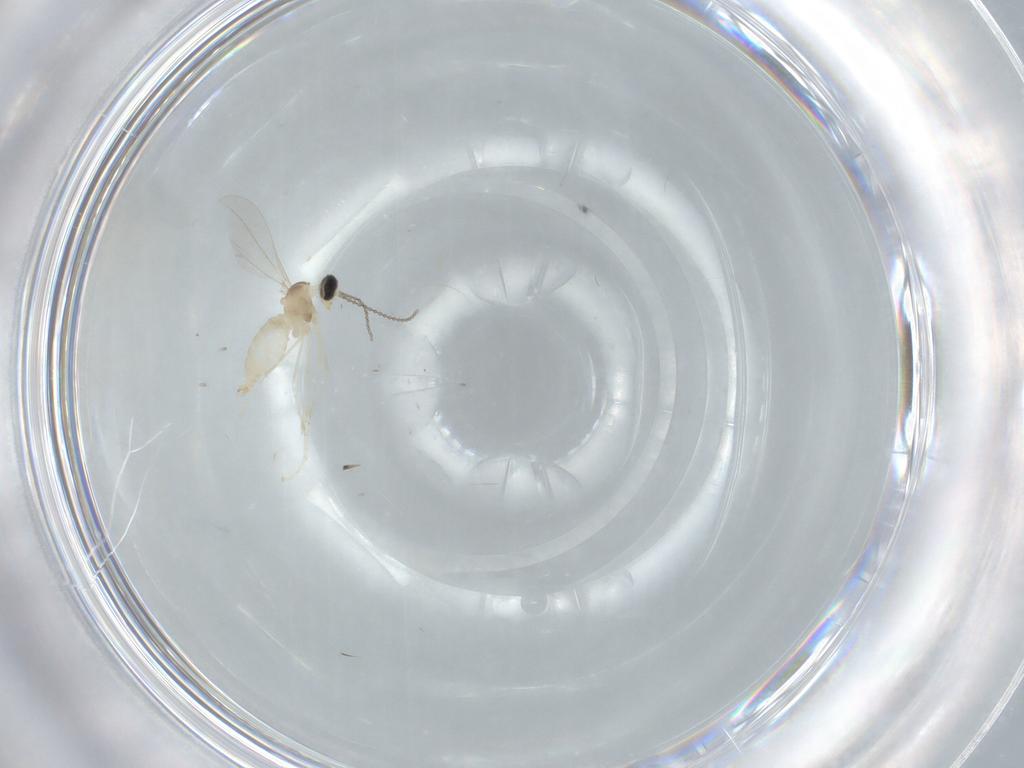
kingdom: Animalia
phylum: Arthropoda
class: Insecta
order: Diptera
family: Cecidomyiidae
